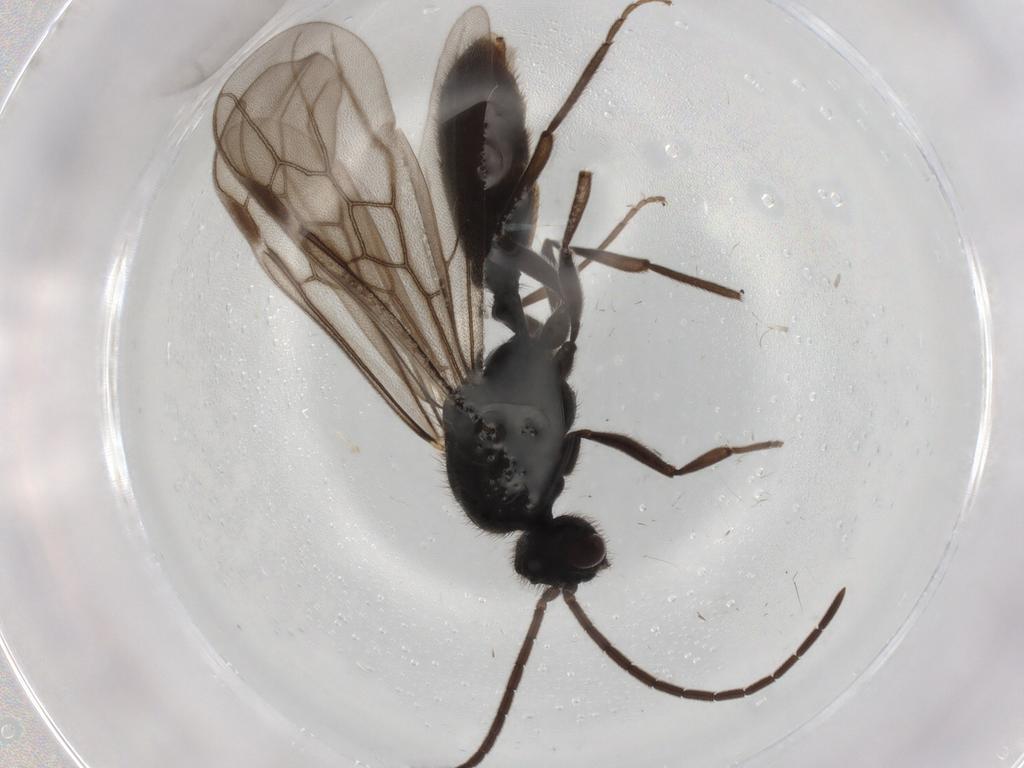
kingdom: Animalia
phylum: Arthropoda
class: Insecta
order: Hymenoptera
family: Formicidae
